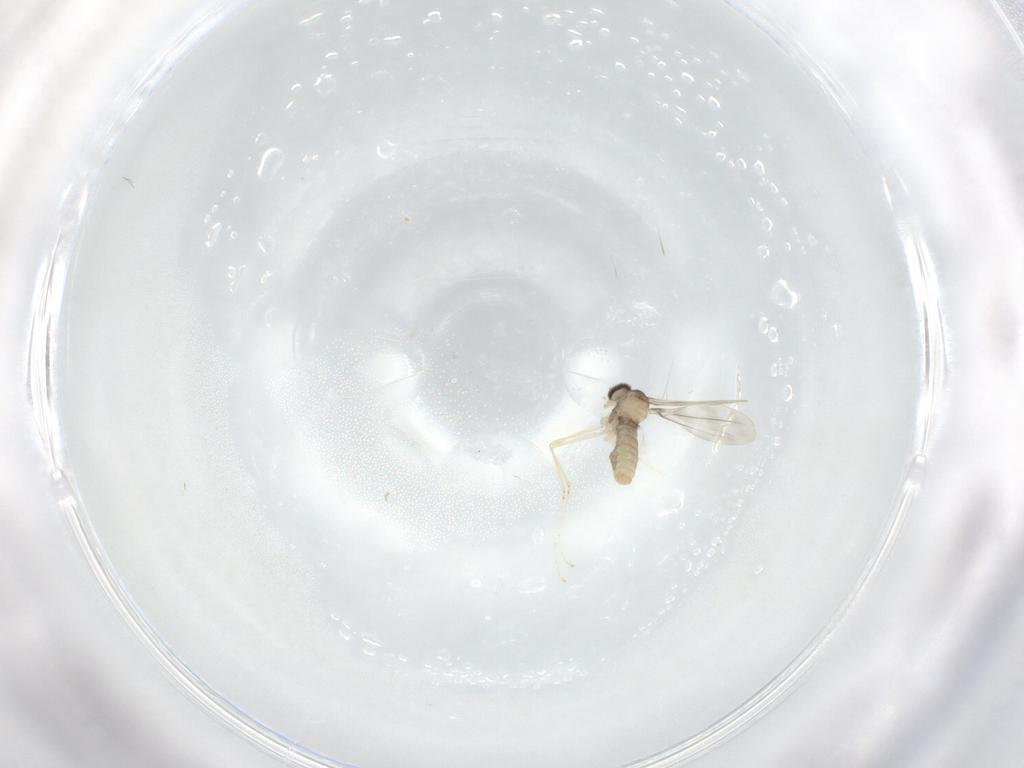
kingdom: Animalia
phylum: Arthropoda
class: Insecta
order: Diptera
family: Cecidomyiidae
